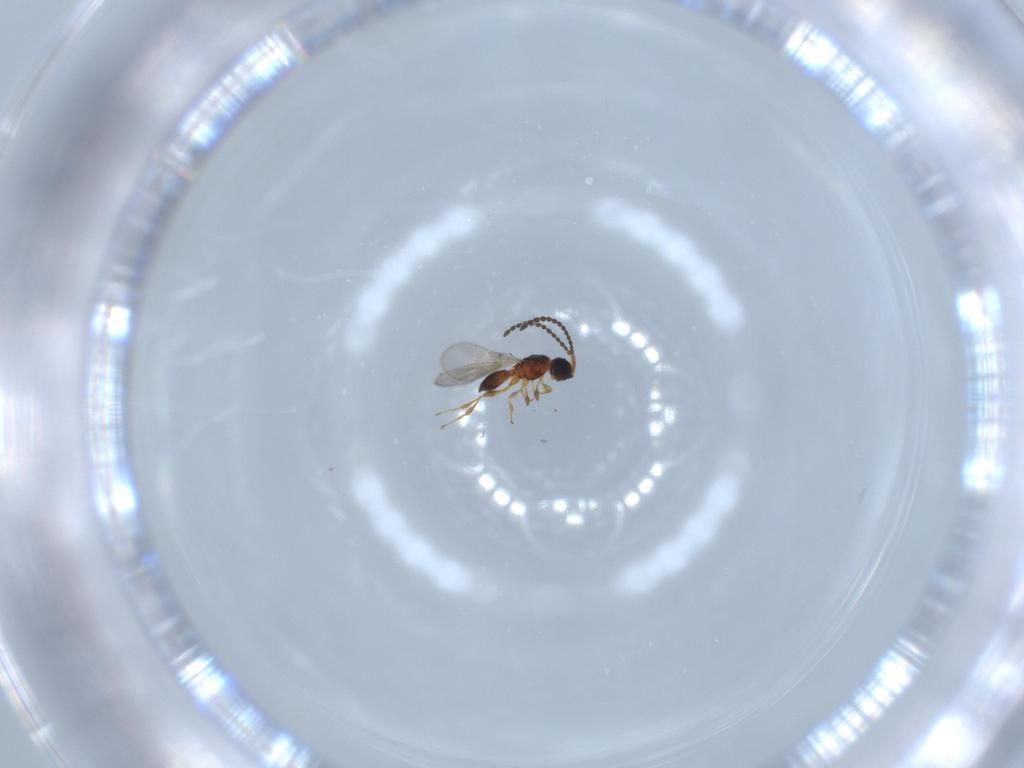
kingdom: Animalia
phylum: Arthropoda
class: Insecta
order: Hymenoptera
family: Diapriidae
